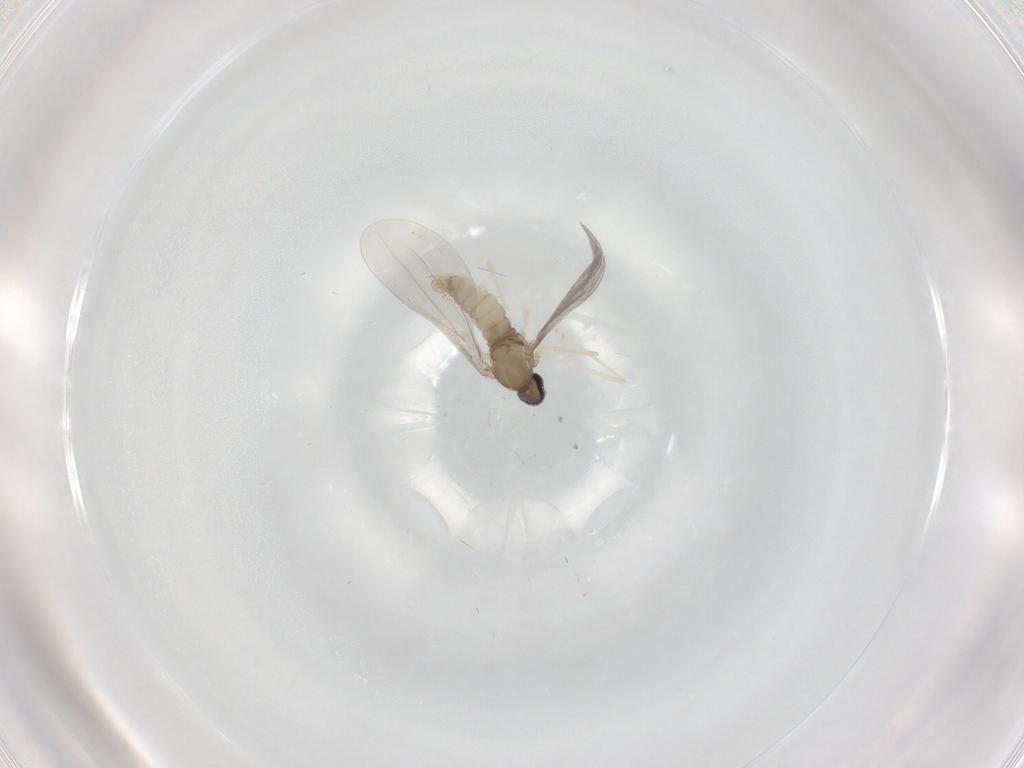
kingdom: Animalia
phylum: Arthropoda
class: Insecta
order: Diptera
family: Cecidomyiidae
